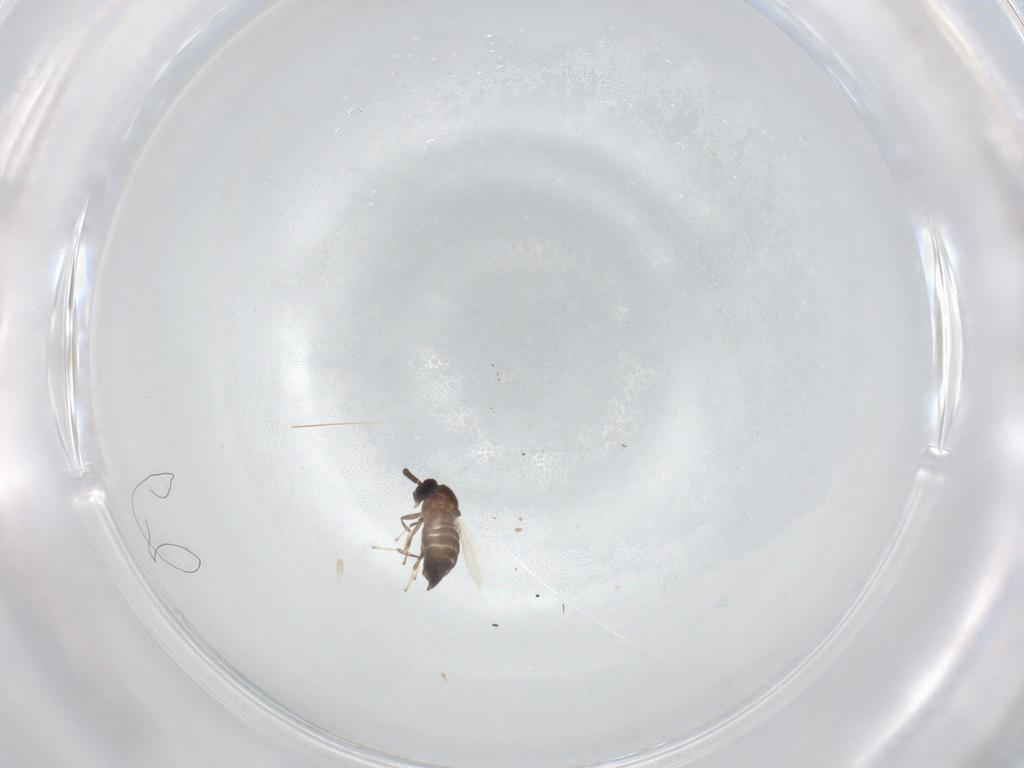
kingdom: Animalia
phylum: Arthropoda
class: Insecta
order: Diptera
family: Scatopsidae
